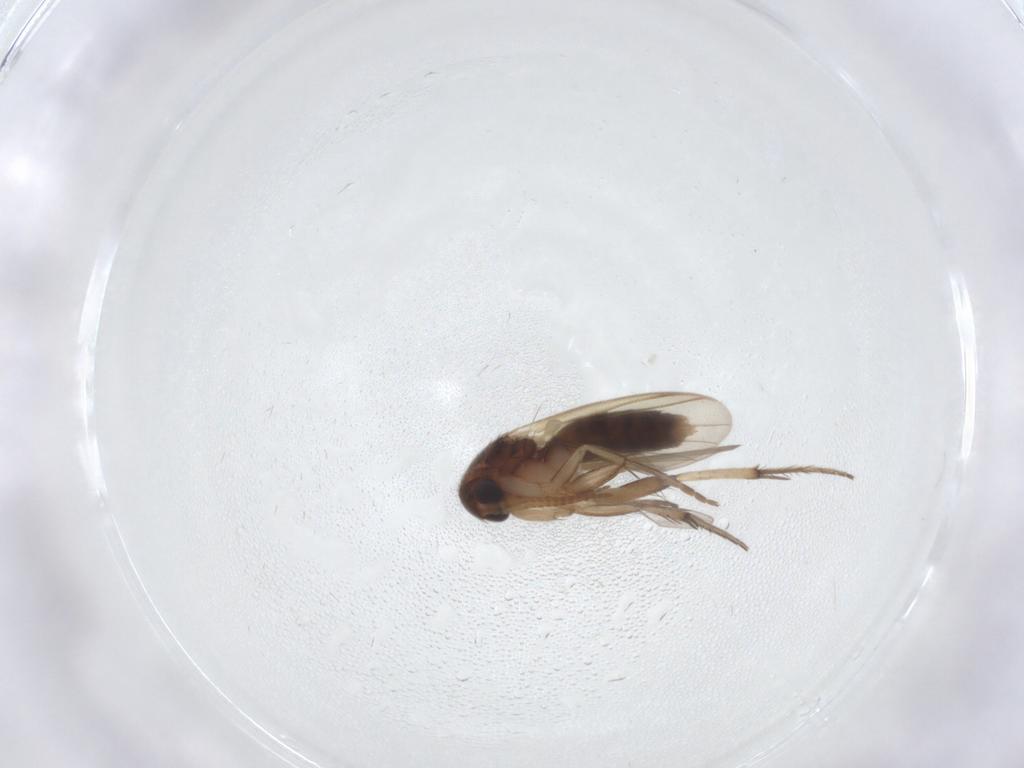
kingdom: Animalia
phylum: Arthropoda
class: Insecta
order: Diptera
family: Mycetophilidae
